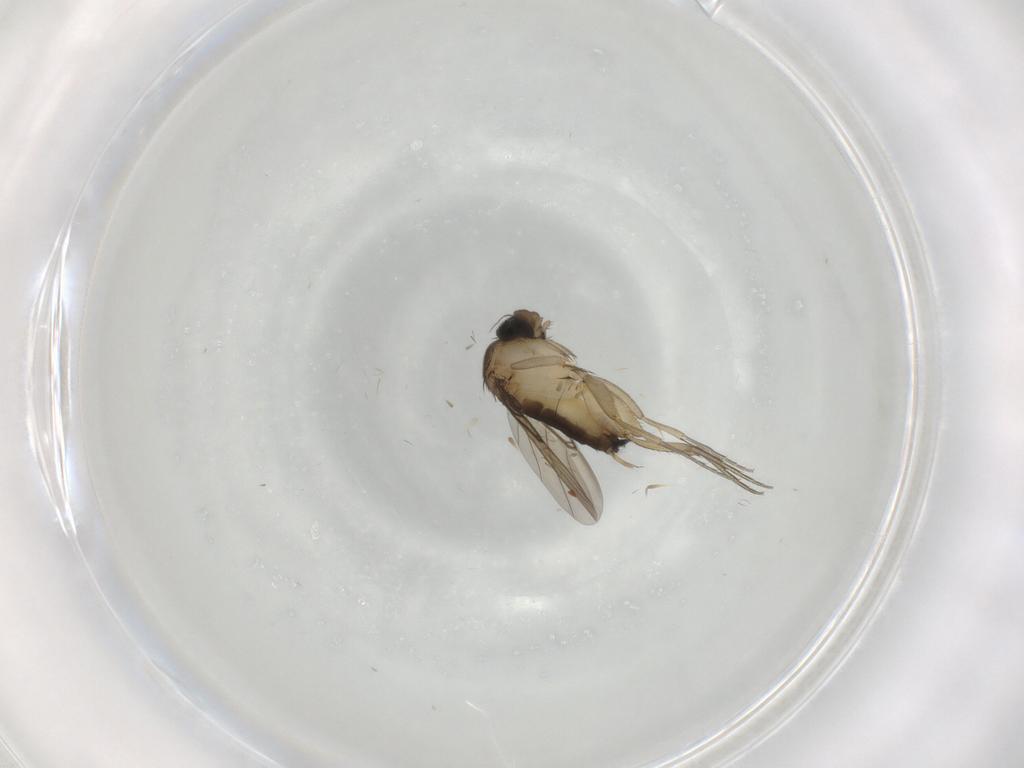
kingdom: Animalia
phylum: Arthropoda
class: Insecta
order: Diptera
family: Phoridae
